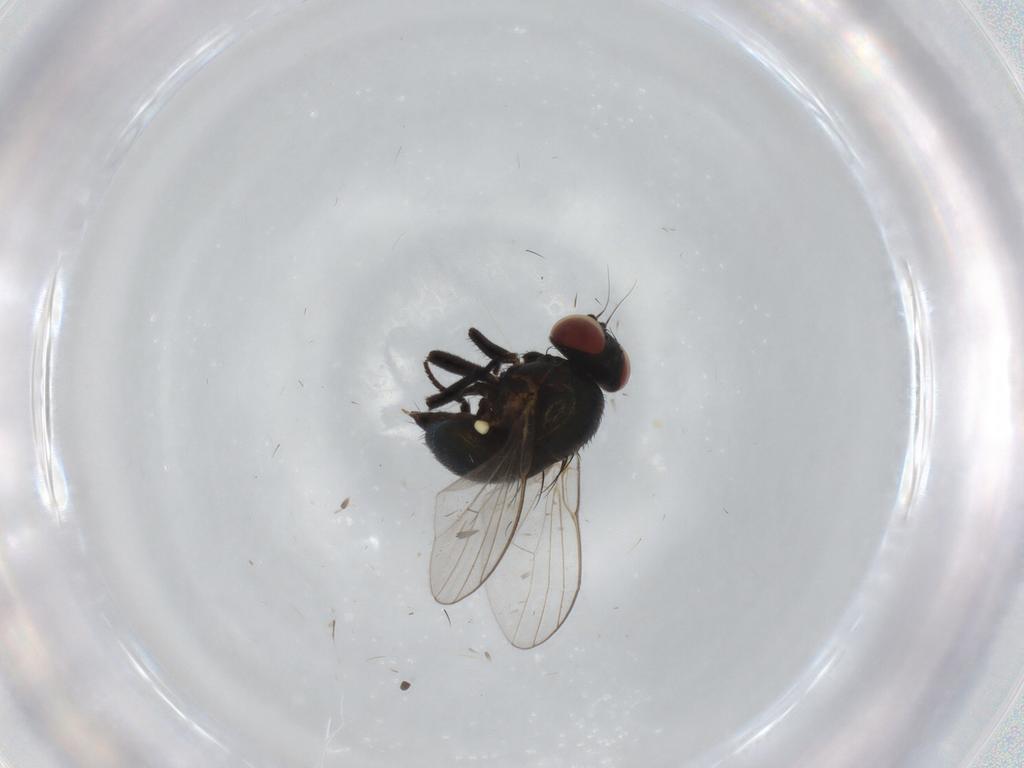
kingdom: Animalia
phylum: Arthropoda
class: Insecta
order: Diptera
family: Agromyzidae
